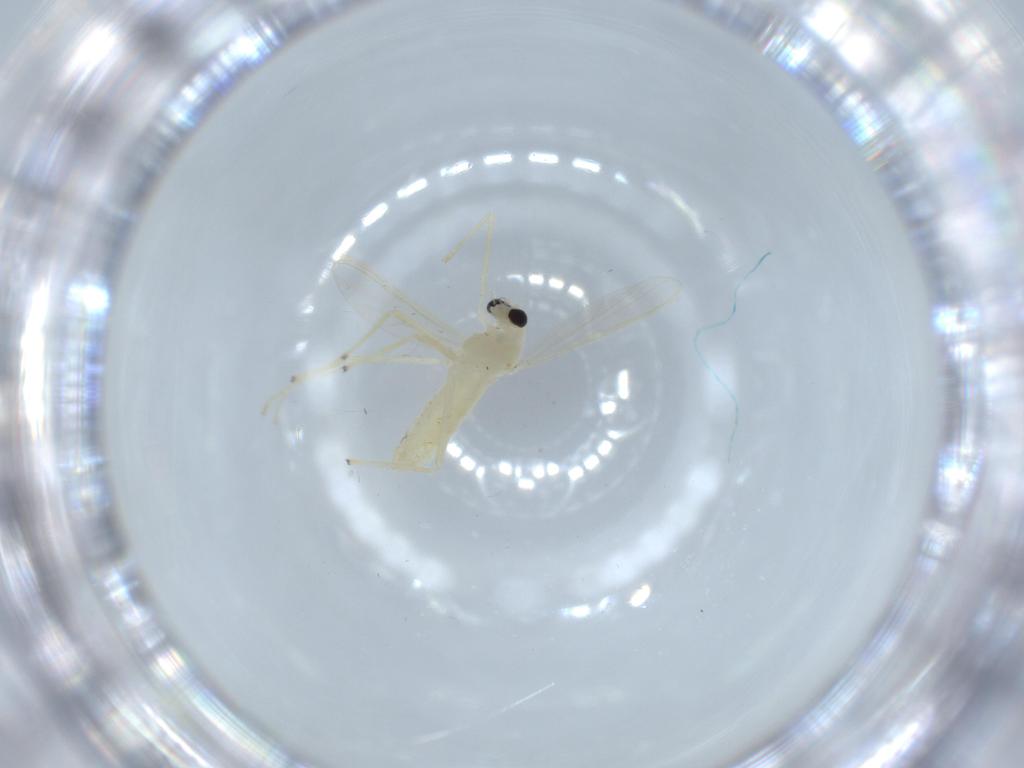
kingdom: Animalia
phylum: Arthropoda
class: Insecta
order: Diptera
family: Chironomidae
